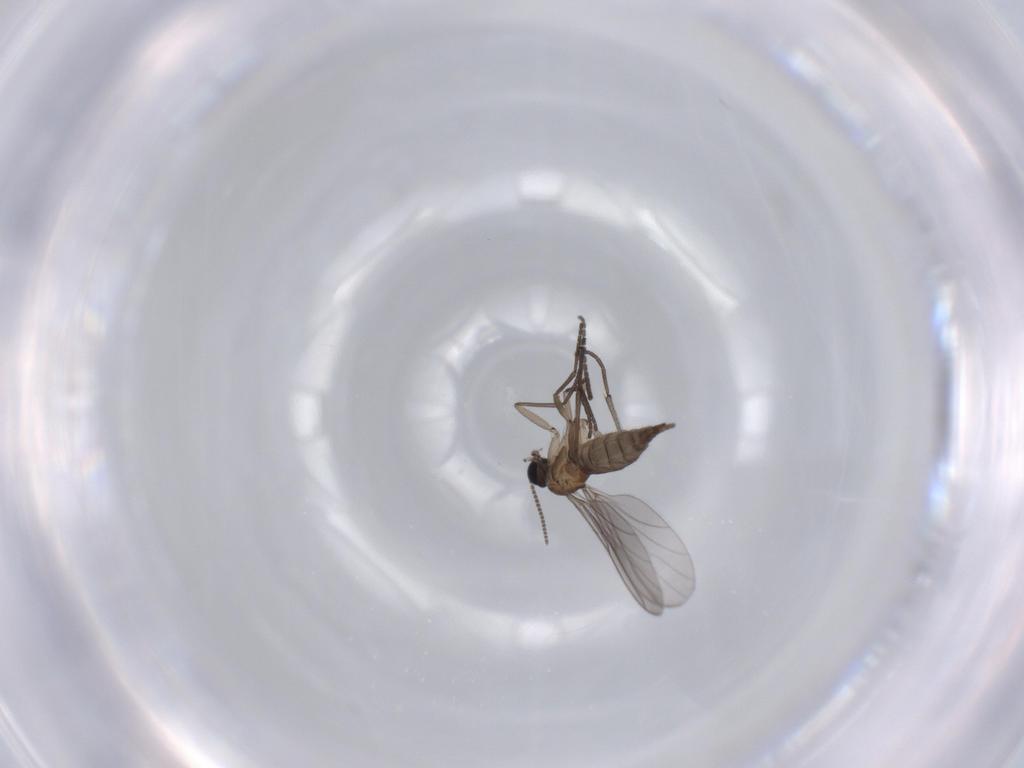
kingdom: Animalia
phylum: Arthropoda
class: Insecta
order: Diptera
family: Sciaridae
